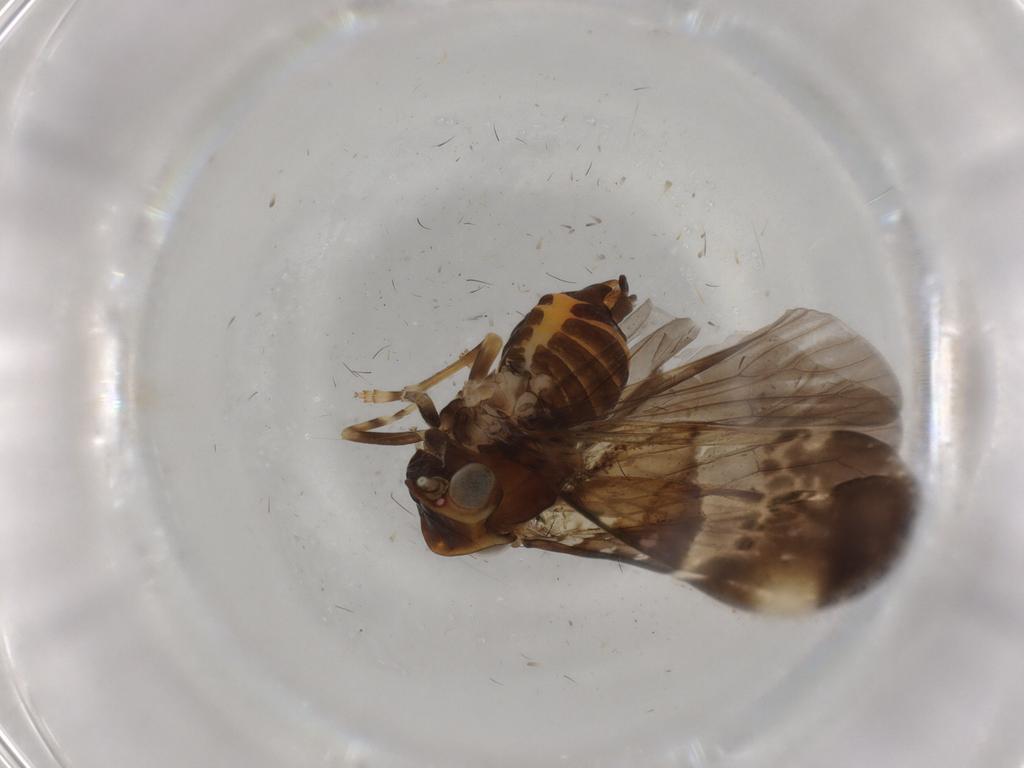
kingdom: Animalia
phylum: Arthropoda
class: Insecta
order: Hemiptera
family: Cixiidae
